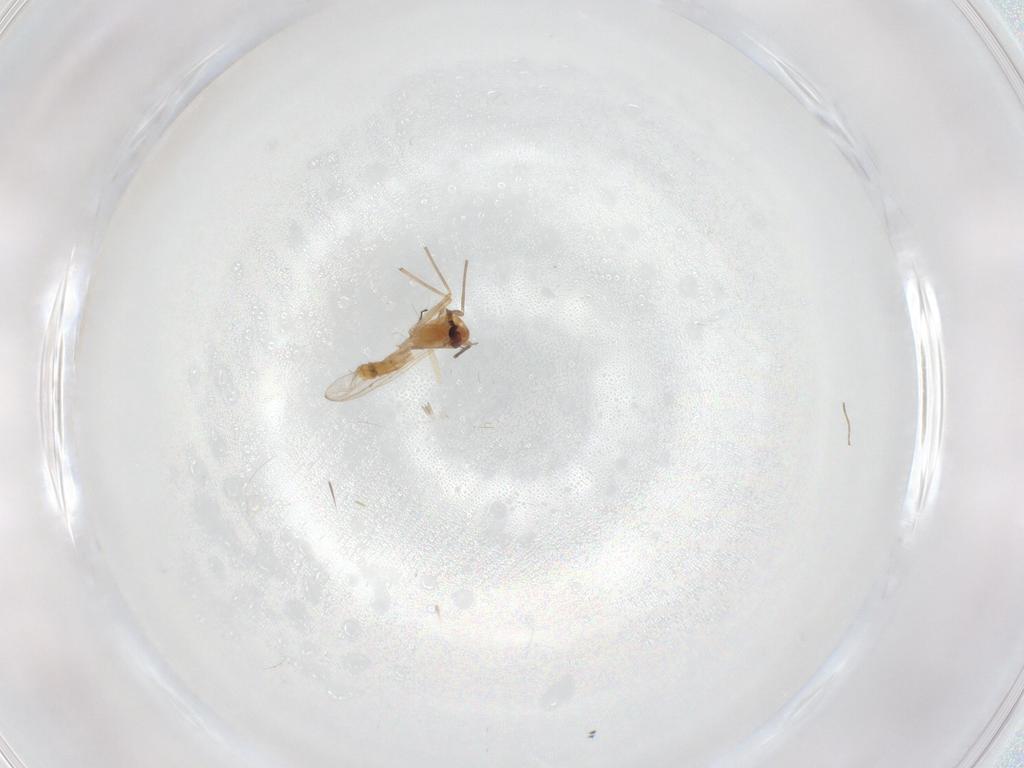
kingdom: Animalia
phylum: Arthropoda
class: Insecta
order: Diptera
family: Chironomidae
